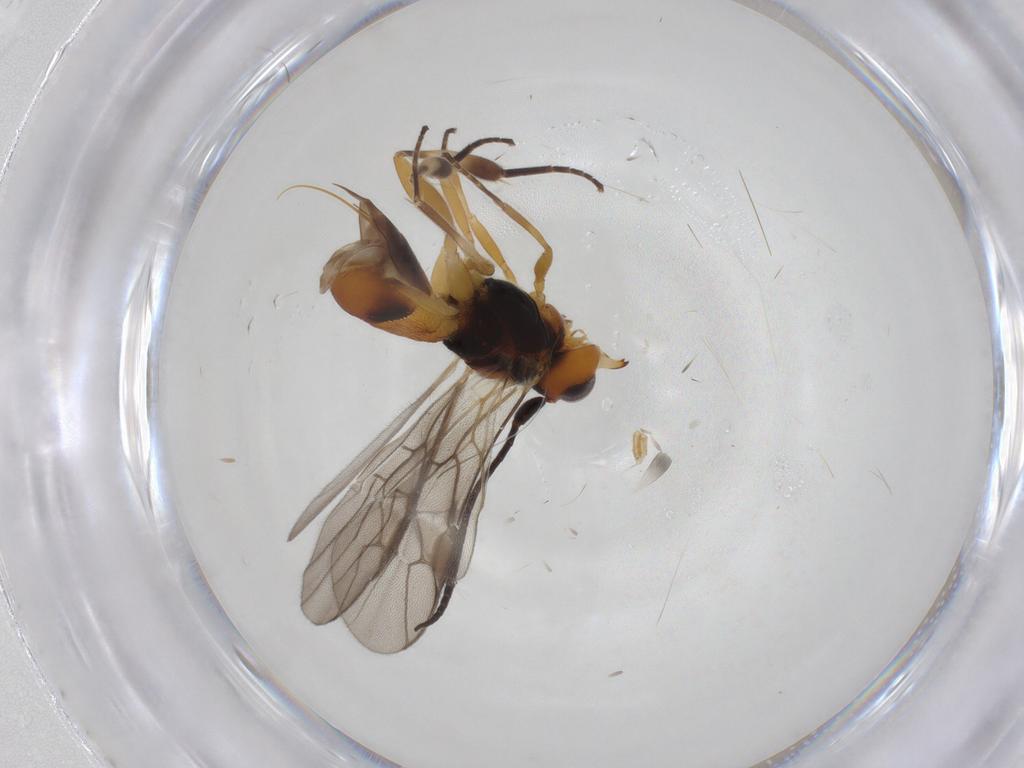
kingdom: Animalia
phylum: Arthropoda
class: Insecta
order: Hymenoptera
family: Braconidae
